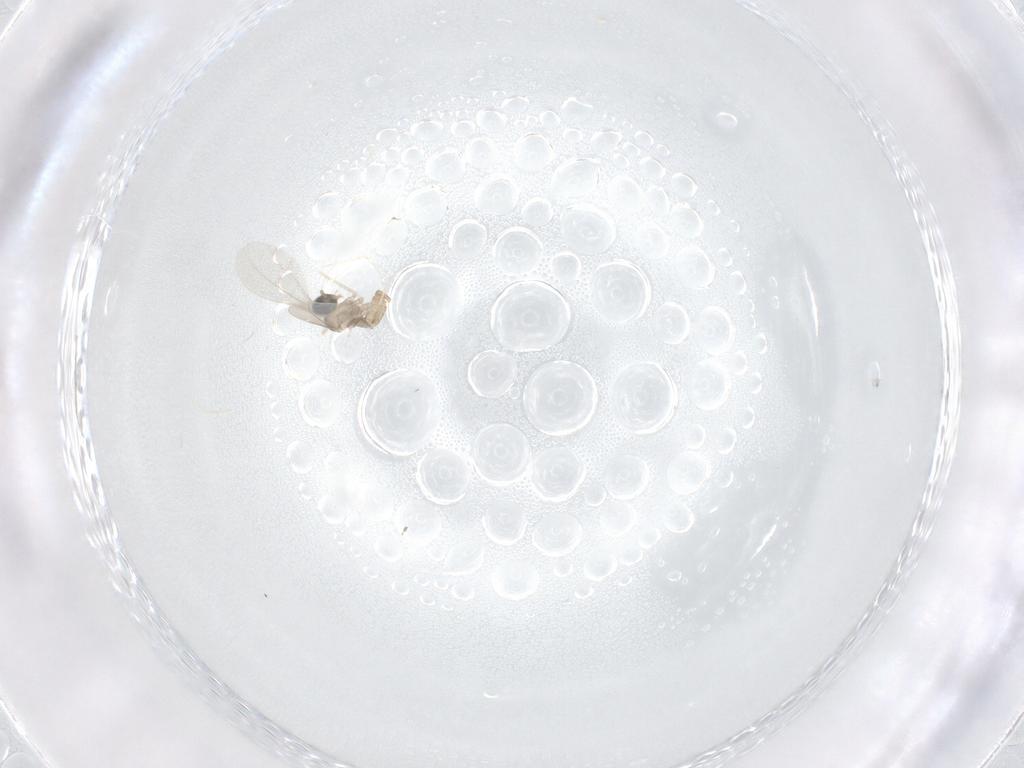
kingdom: Animalia
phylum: Arthropoda
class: Insecta
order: Diptera
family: Cecidomyiidae
